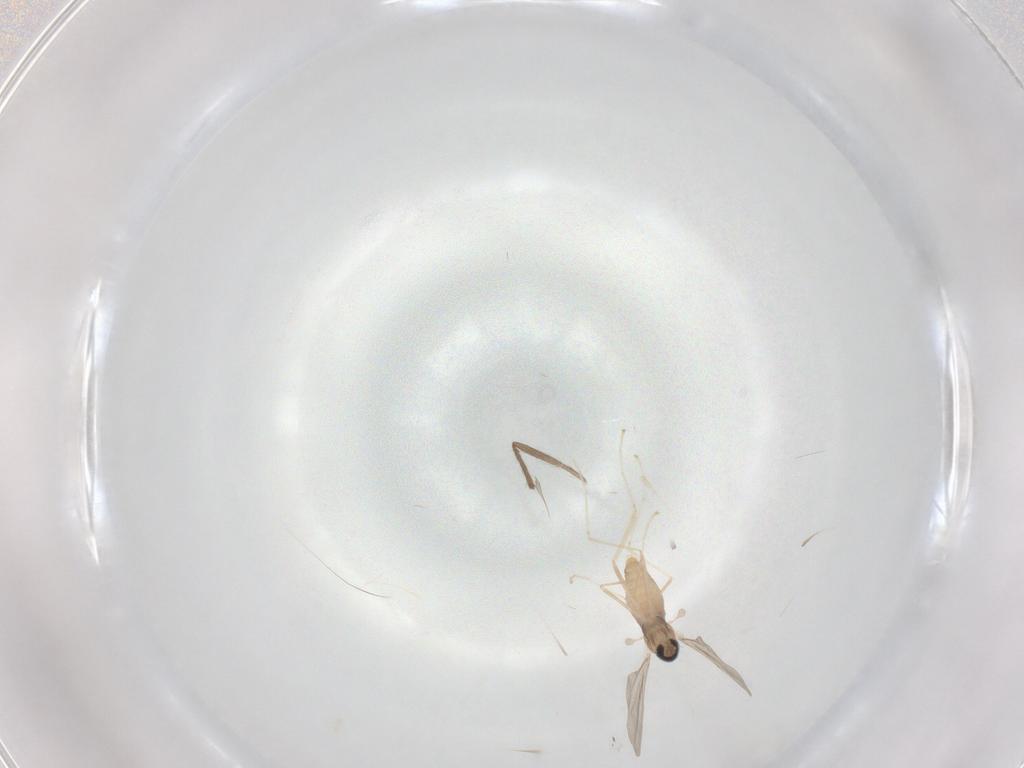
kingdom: Animalia
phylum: Arthropoda
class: Insecta
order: Diptera
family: Cecidomyiidae
